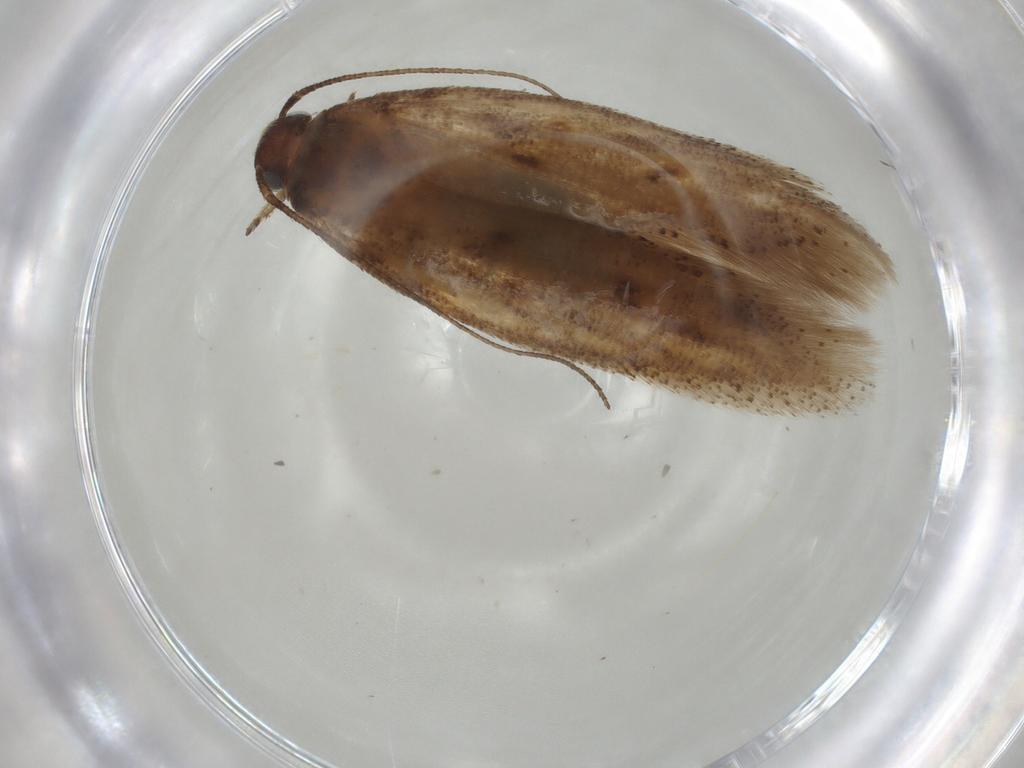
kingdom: Animalia
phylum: Arthropoda
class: Insecta
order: Lepidoptera
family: Gelechiidae
